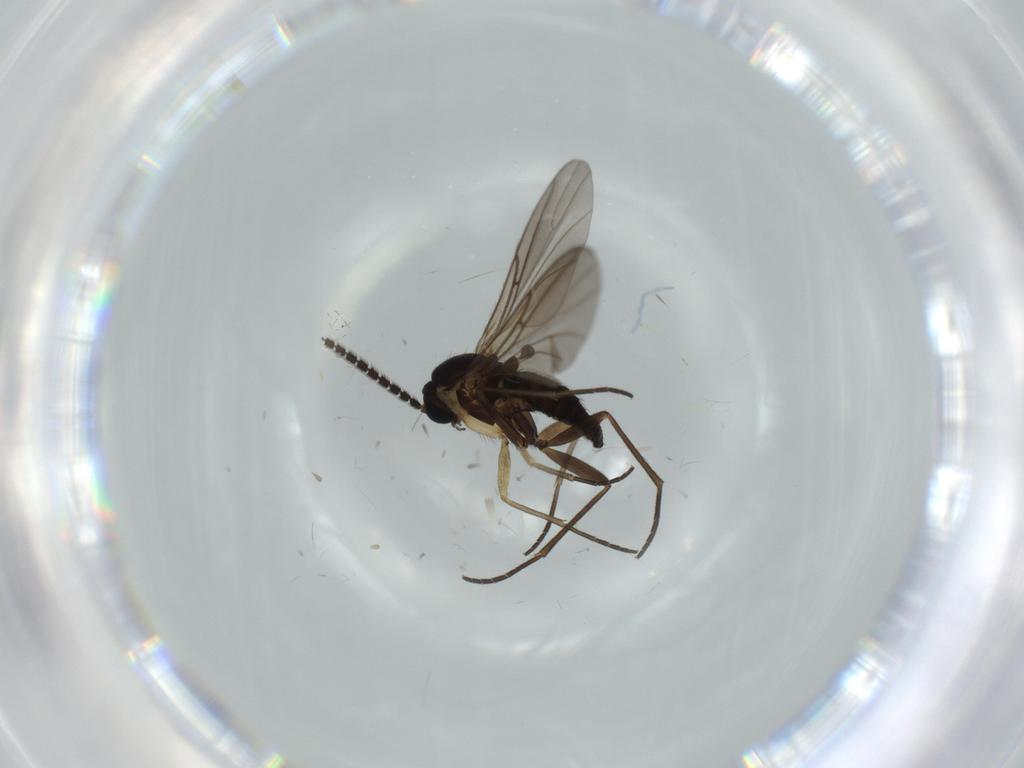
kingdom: Animalia
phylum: Arthropoda
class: Insecta
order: Diptera
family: Sciaridae
